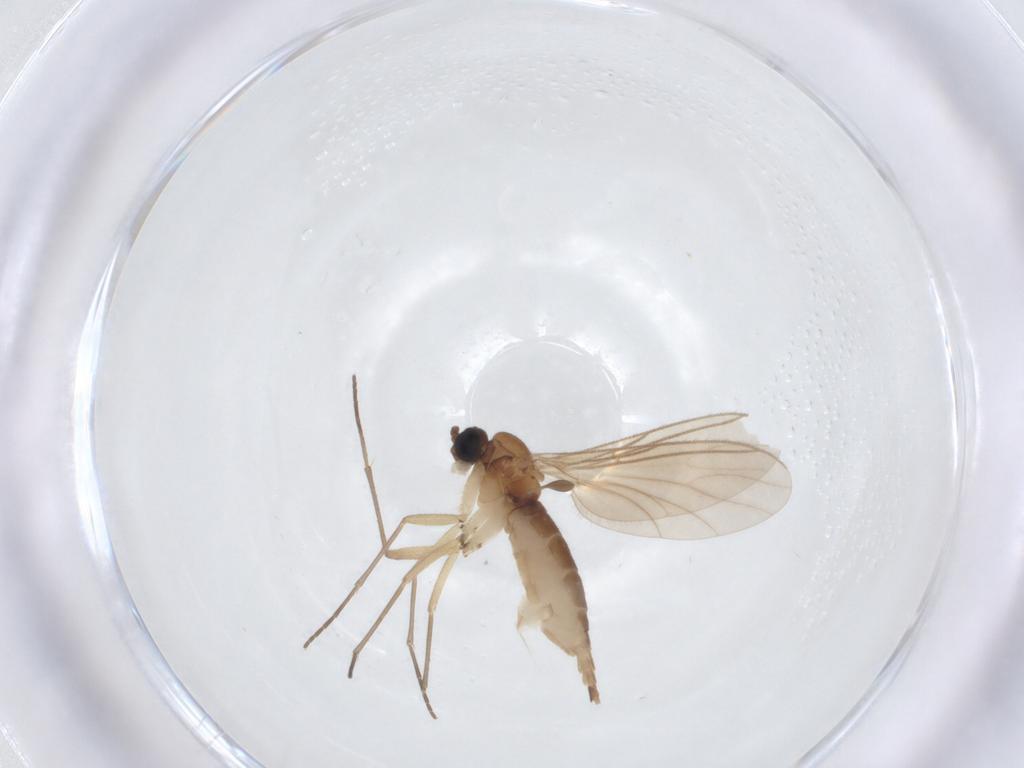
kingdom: Animalia
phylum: Arthropoda
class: Insecta
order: Diptera
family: Sciaridae
